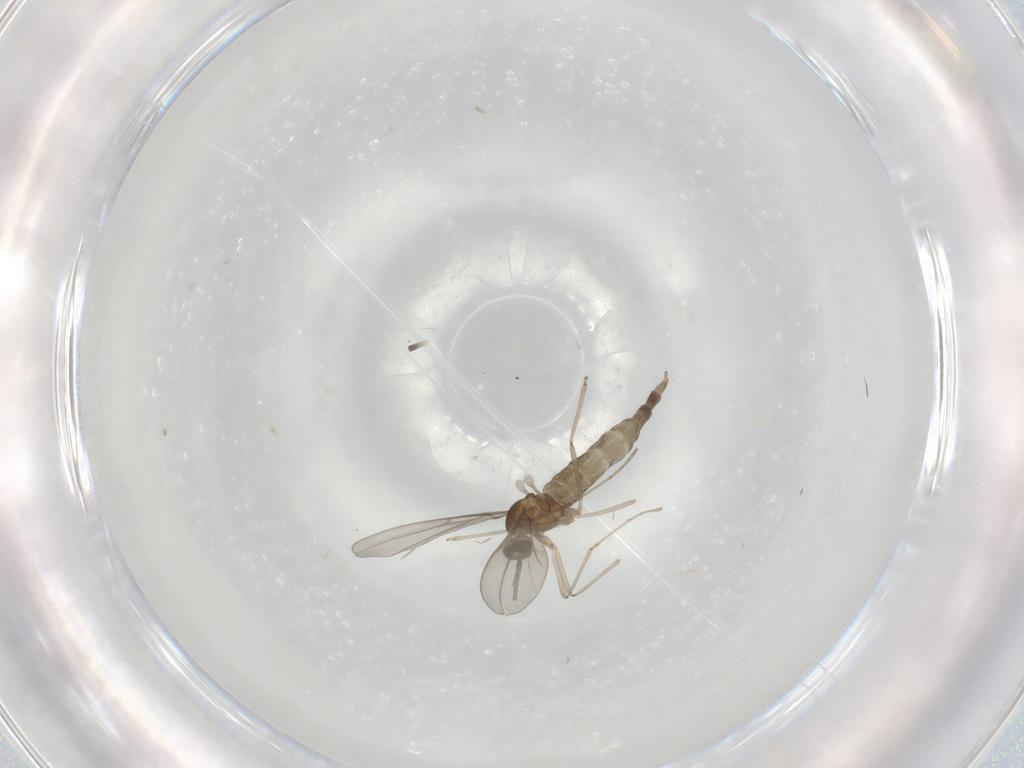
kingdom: Animalia
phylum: Arthropoda
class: Insecta
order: Diptera
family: Cecidomyiidae
